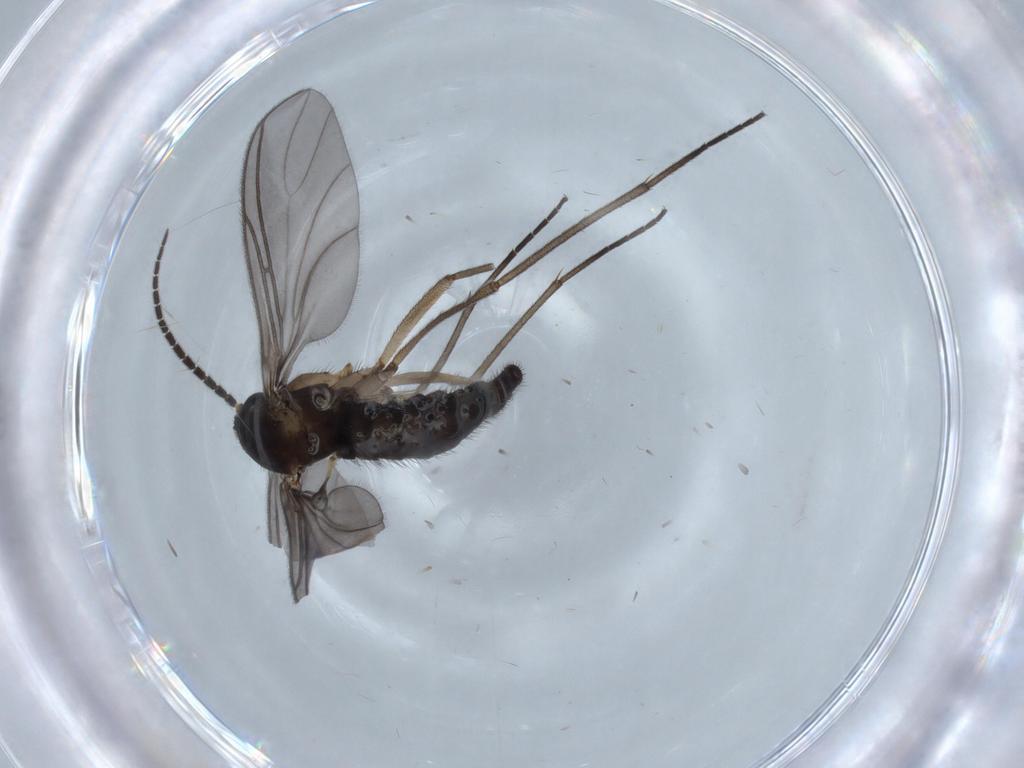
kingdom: Animalia
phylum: Arthropoda
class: Insecta
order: Diptera
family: Sciaridae
